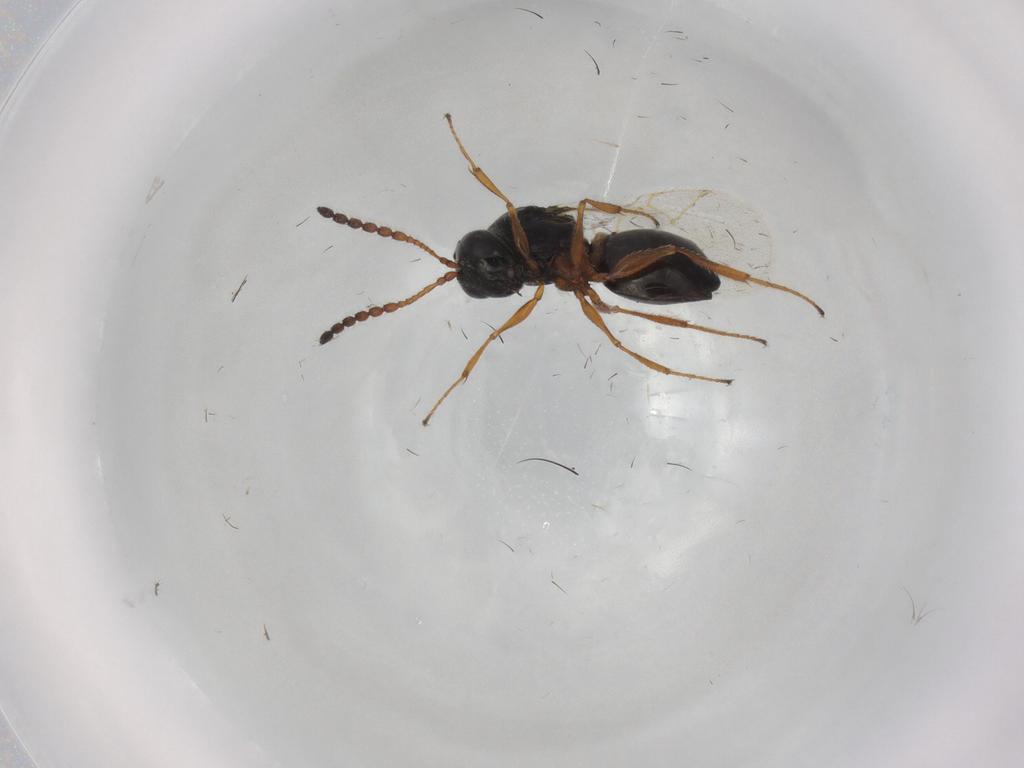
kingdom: Animalia
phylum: Arthropoda
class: Insecta
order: Hymenoptera
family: Figitidae
